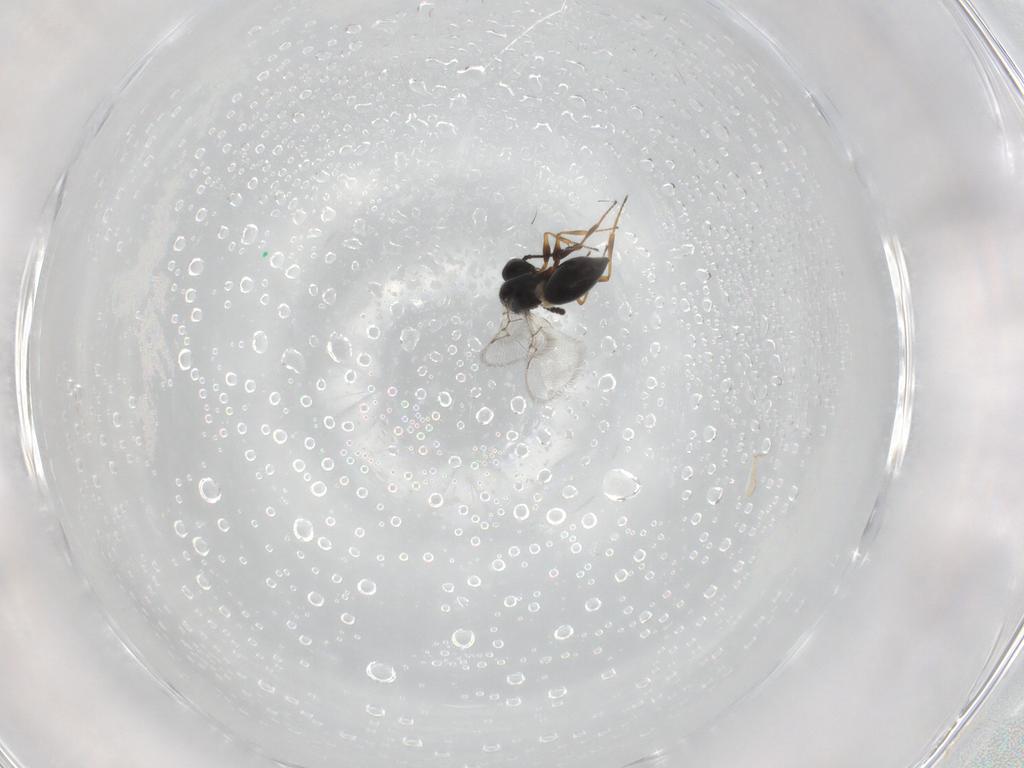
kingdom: Animalia
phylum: Arthropoda
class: Insecta
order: Hymenoptera
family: Figitidae
